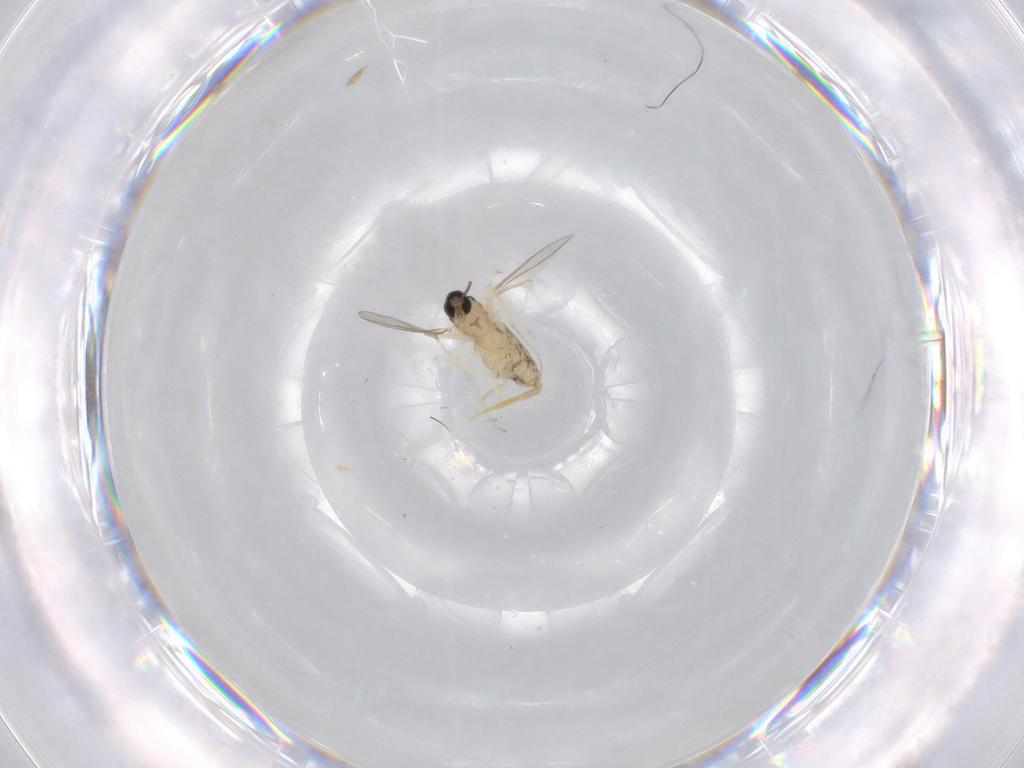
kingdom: Animalia
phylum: Arthropoda
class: Insecta
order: Diptera
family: Cecidomyiidae
